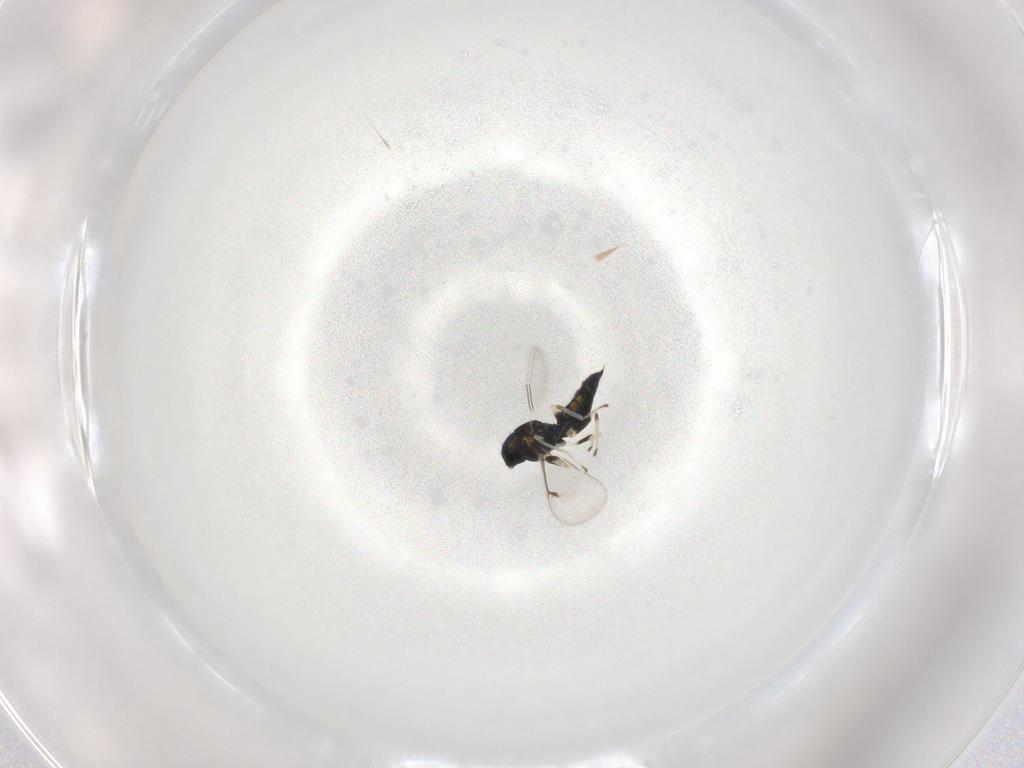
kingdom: Animalia
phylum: Arthropoda
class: Insecta
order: Hymenoptera
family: Eulophidae
